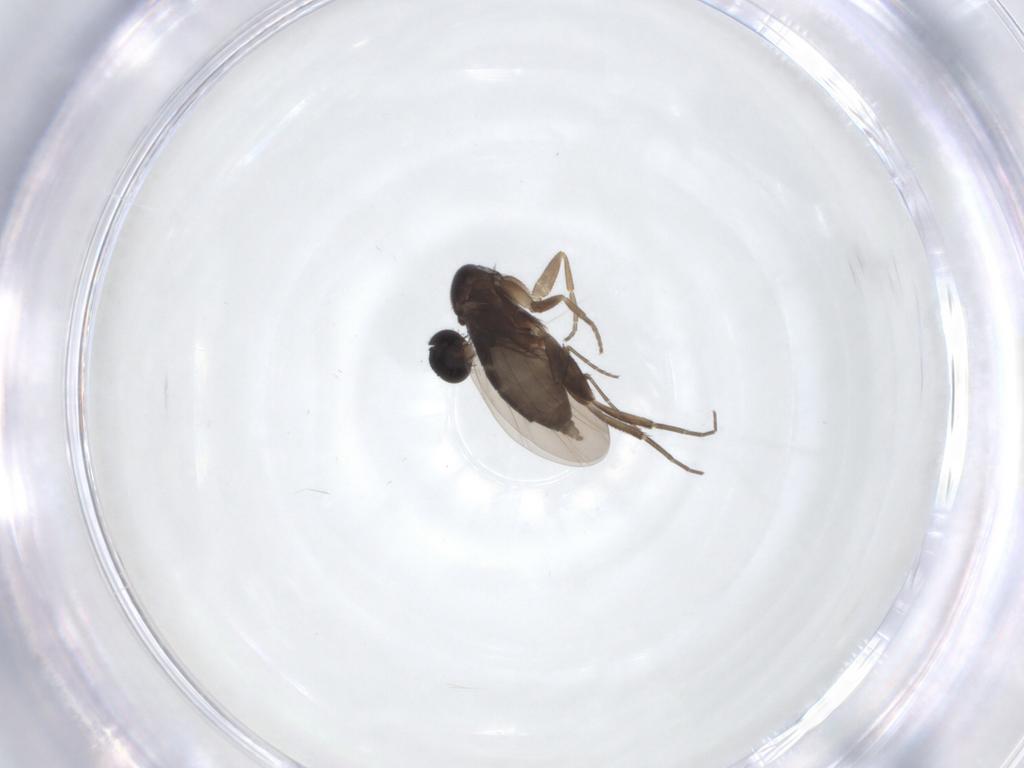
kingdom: Animalia
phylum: Arthropoda
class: Insecta
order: Diptera
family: Phoridae
